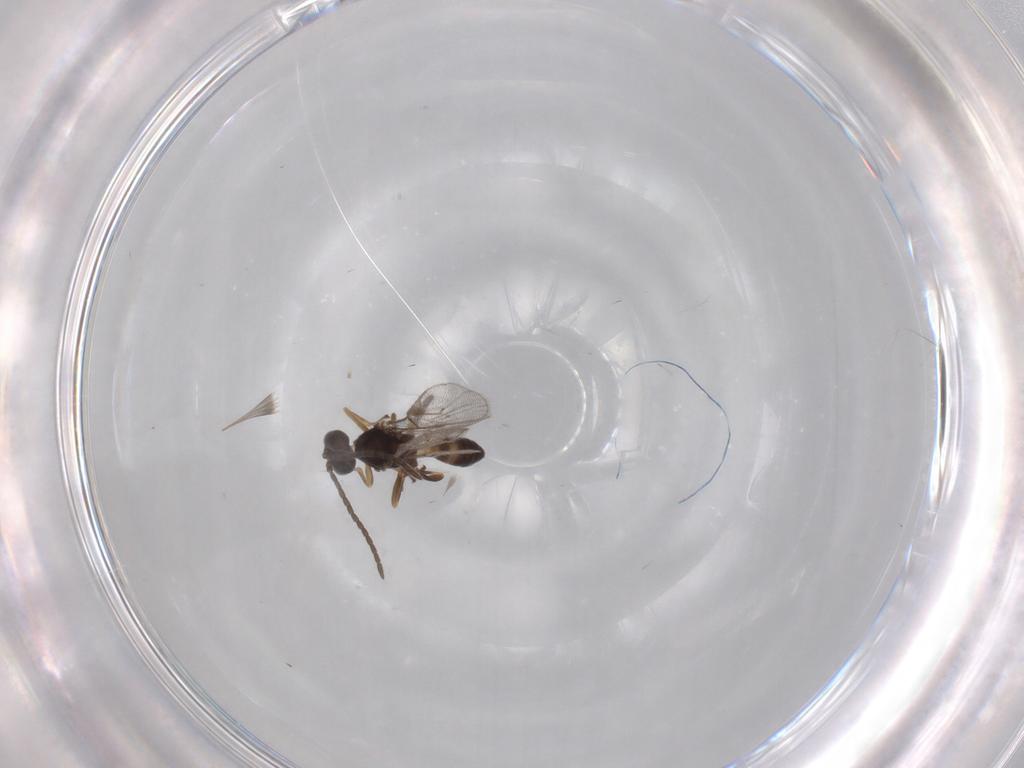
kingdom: Animalia
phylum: Arthropoda
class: Insecta
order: Hymenoptera
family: Braconidae
